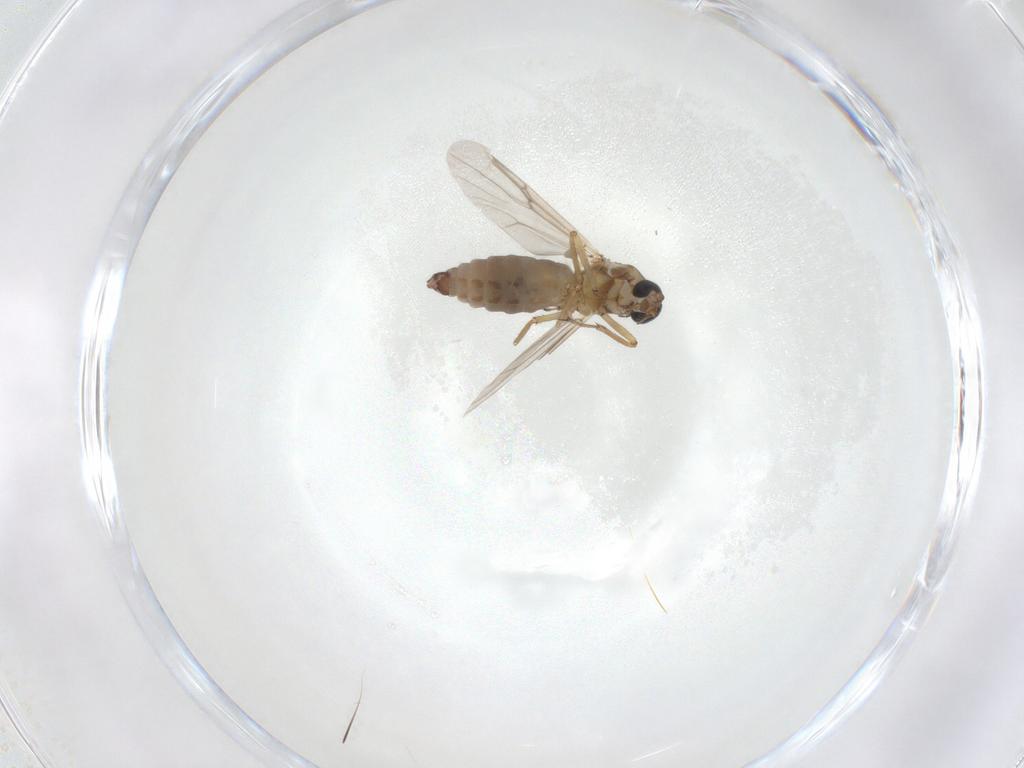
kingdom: Animalia
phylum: Arthropoda
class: Insecta
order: Diptera
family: Ceratopogonidae
